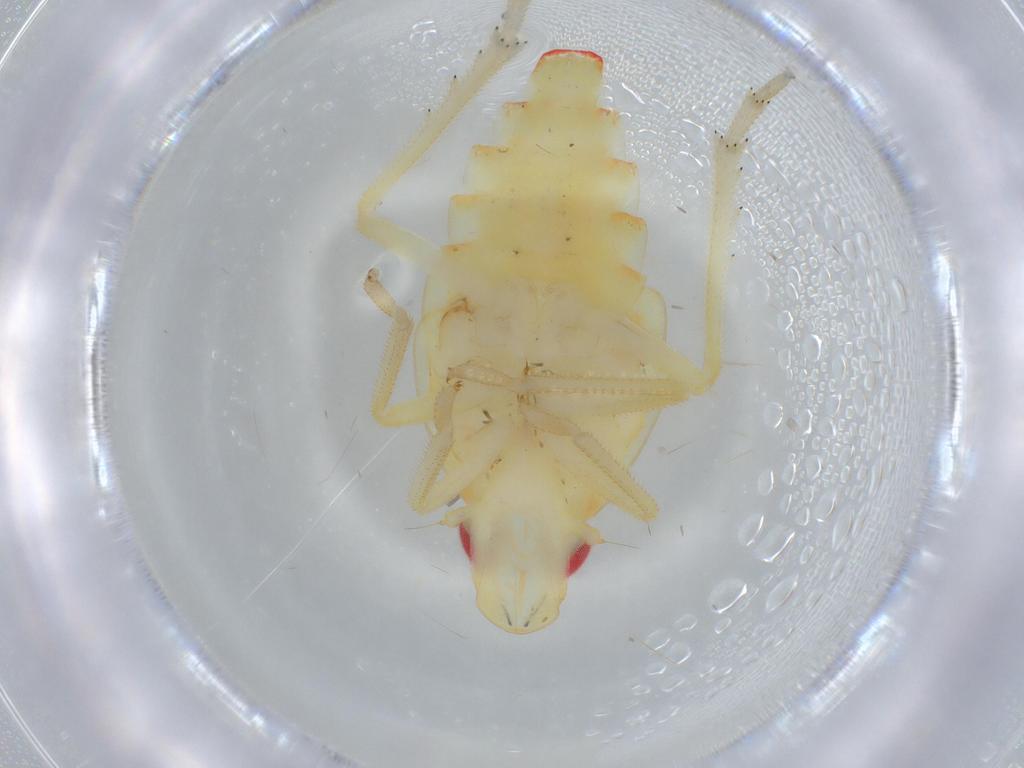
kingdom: Animalia
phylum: Arthropoda
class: Insecta
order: Hemiptera
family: Tropiduchidae
